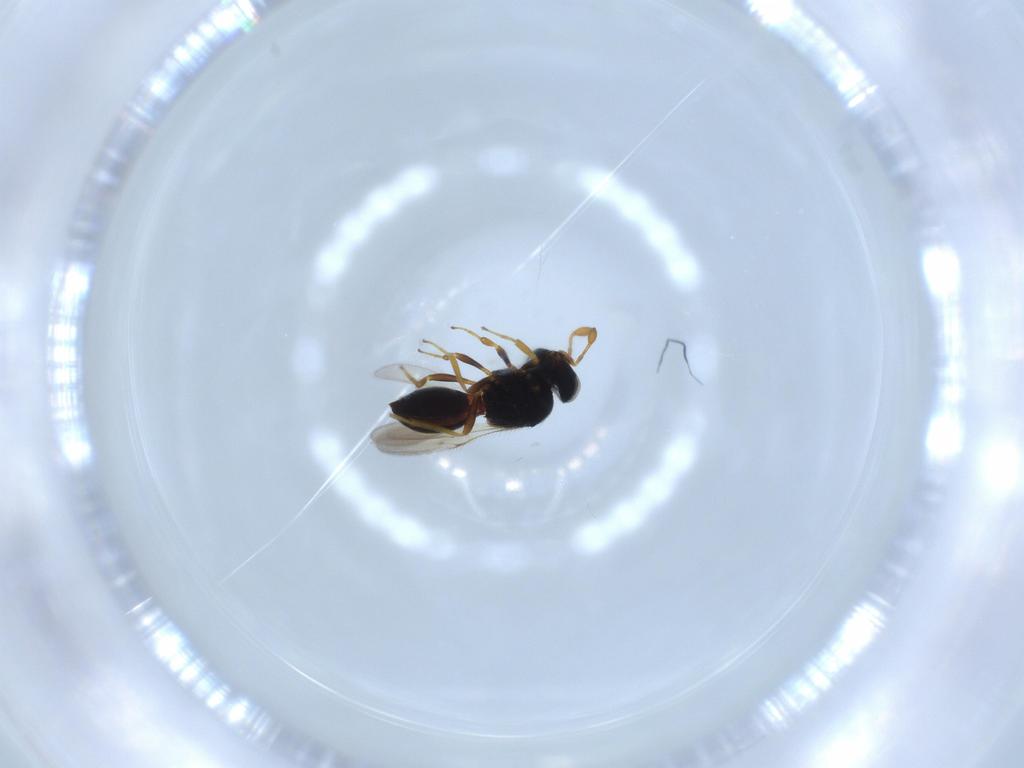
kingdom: Animalia
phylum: Arthropoda
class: Insecta
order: Hymenoptera
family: Scelionidae
